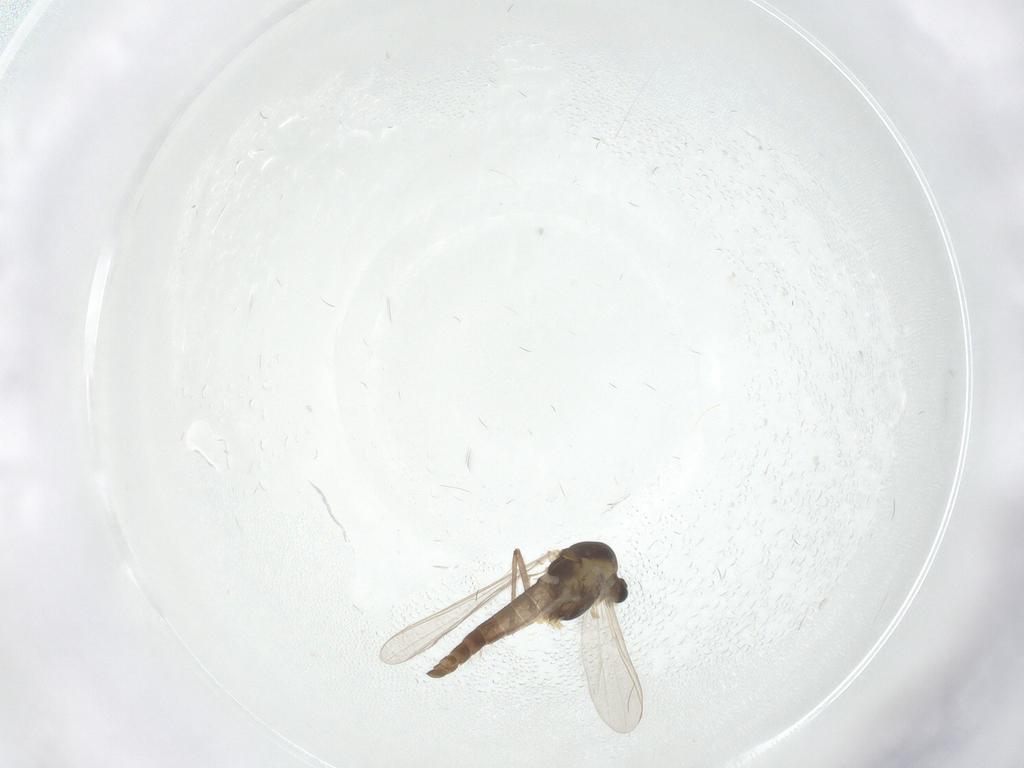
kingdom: Animalia
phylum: Arthropoda
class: Insecta
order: Diptera
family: Chironomidae
